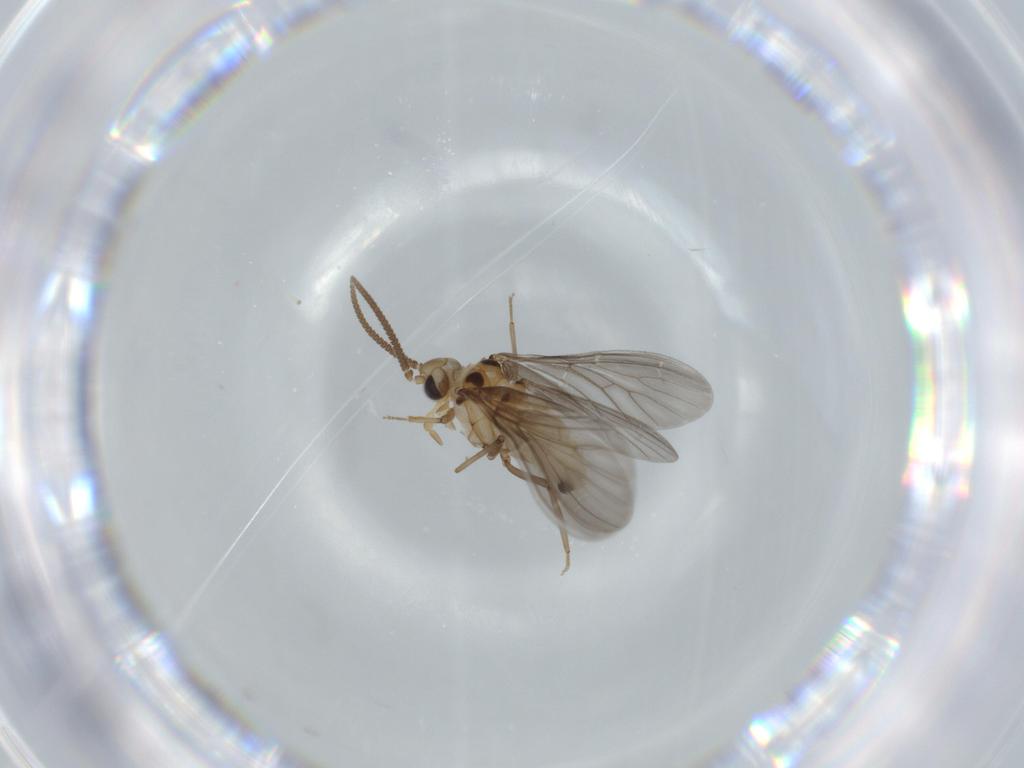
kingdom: Animalia
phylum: Arthropoda
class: Insecta
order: Neuroptera
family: Coniopterygidae
